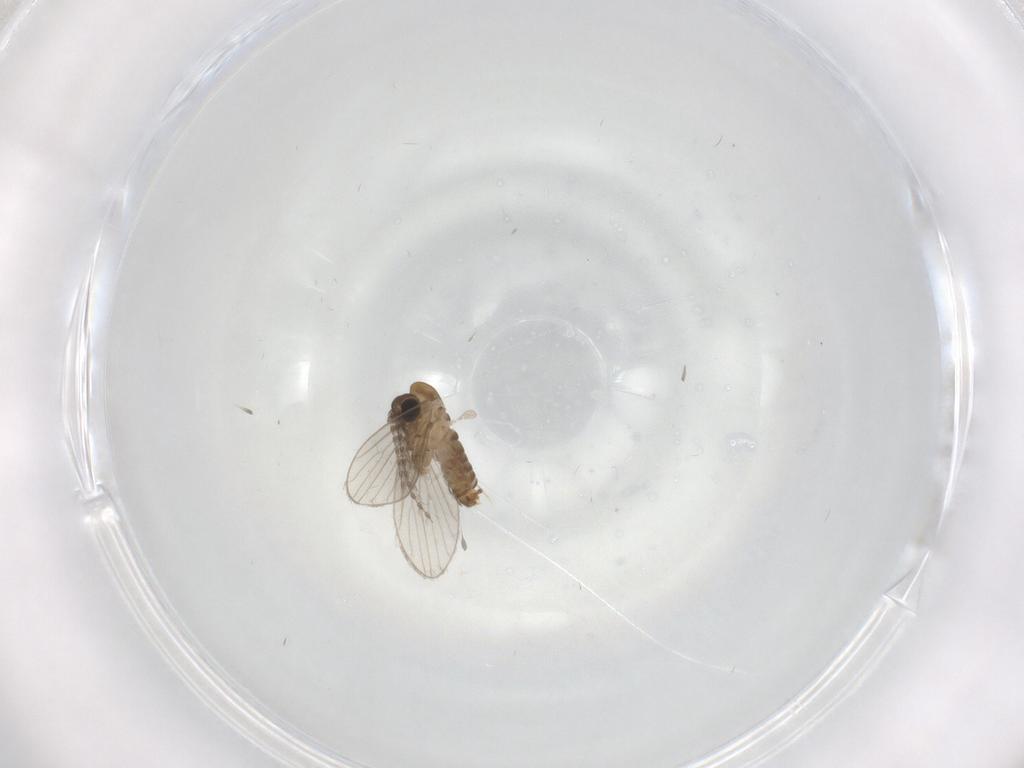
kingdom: Animalia
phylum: Arthropoda
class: Insecta
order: Diptera
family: Psychodidae
